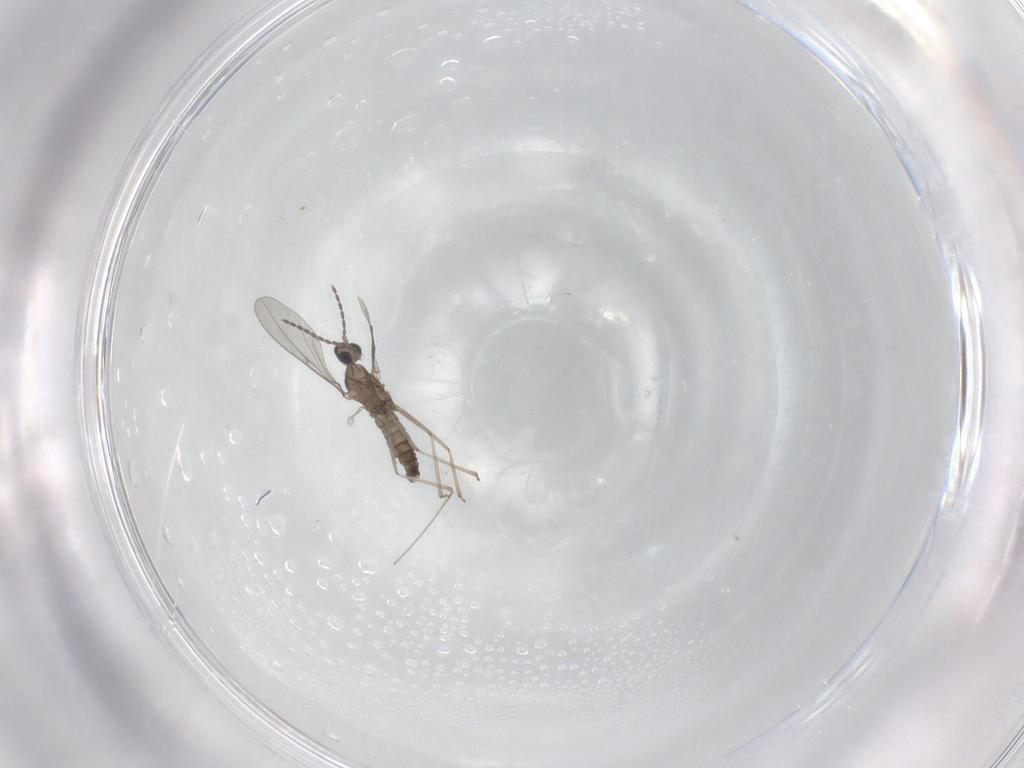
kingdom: Animalia
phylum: Arthropoda
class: Insecta
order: Diptera
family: Cecidomyiidae
